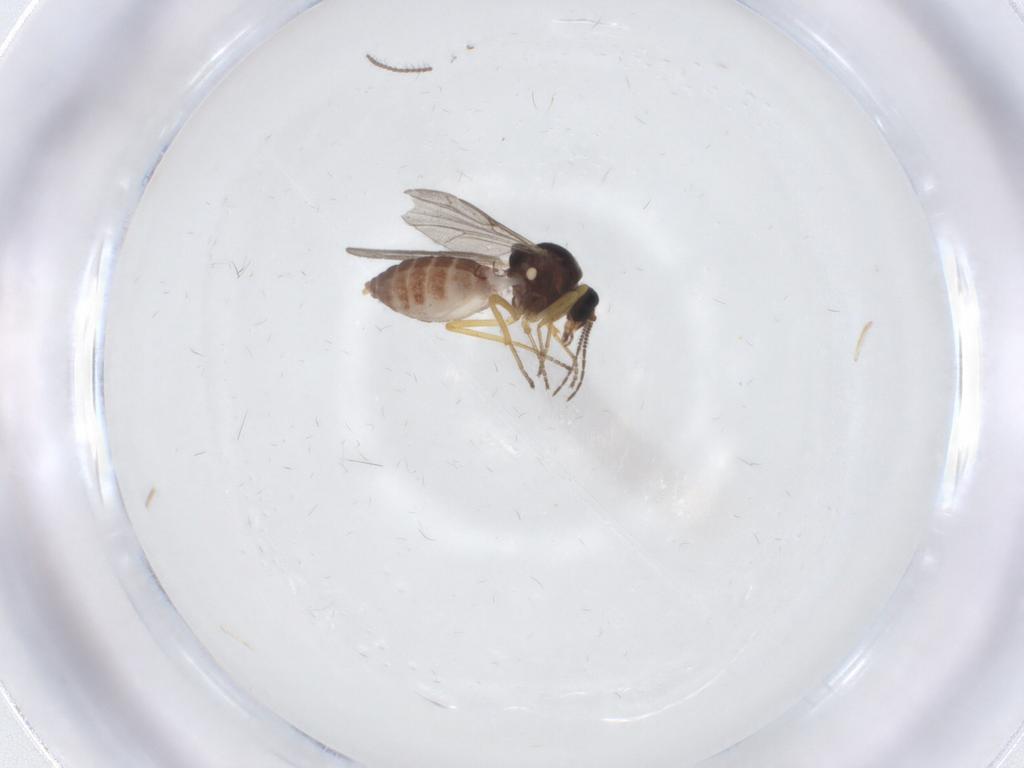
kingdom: Animalia
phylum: Arthropoda
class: Insecta
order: Diptera
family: Ceratopogonidae
